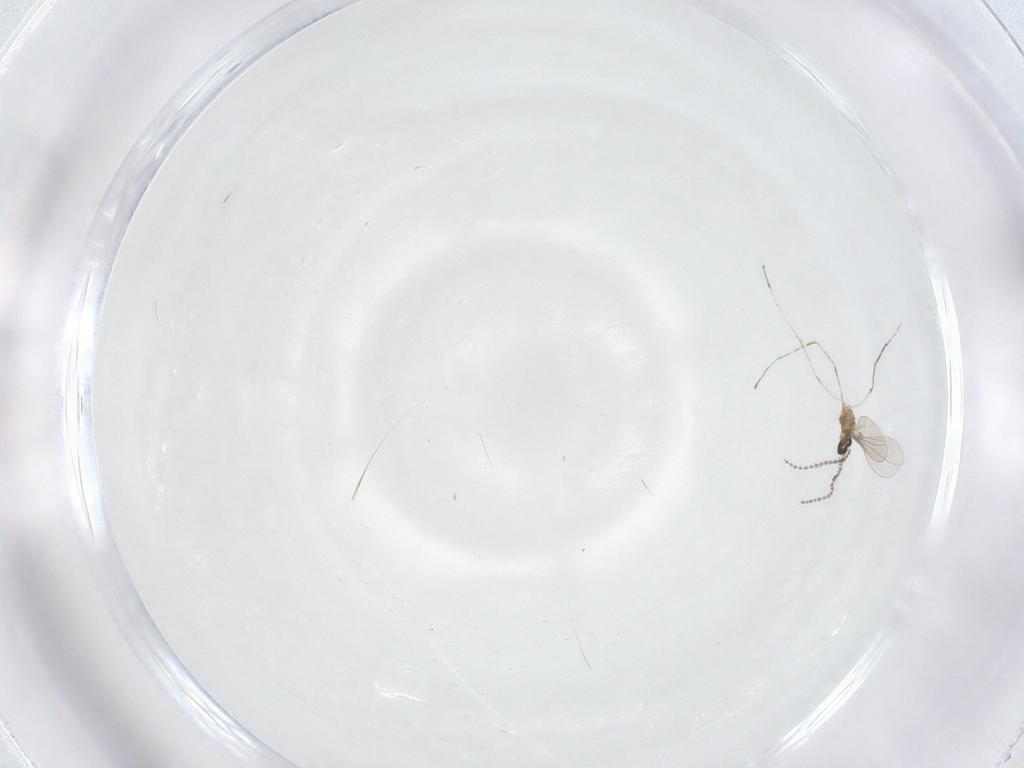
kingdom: Animalia
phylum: Arthropoda
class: Insecta
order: Diptera
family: Cecidomyiidae
